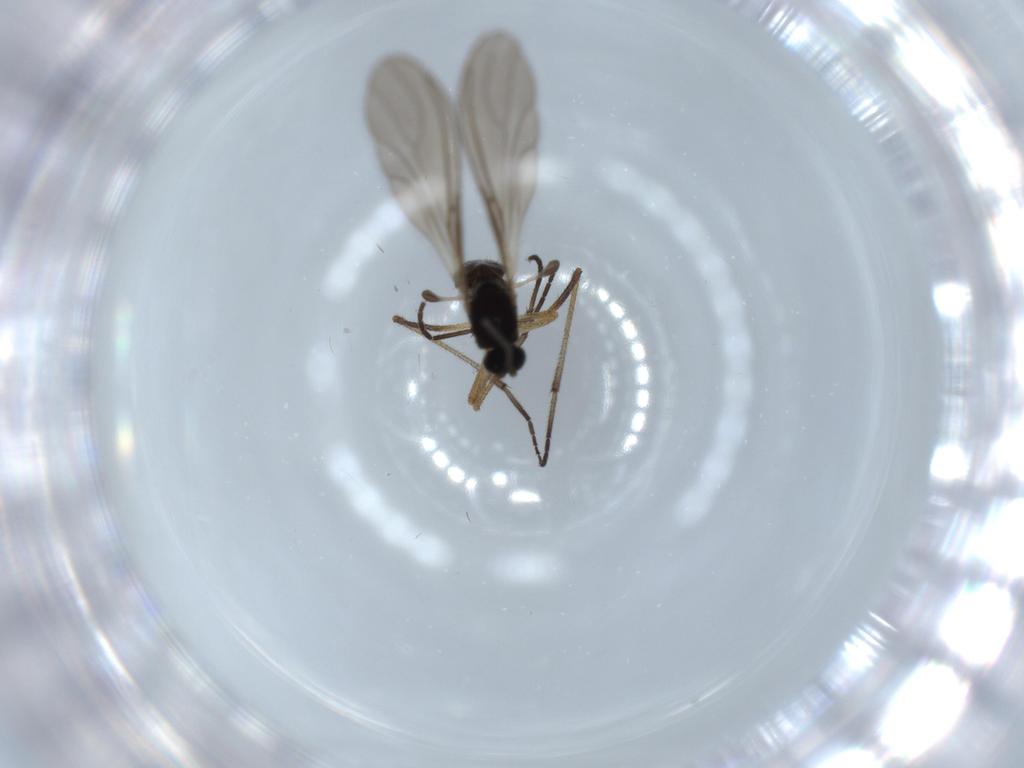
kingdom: Animalia
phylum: Arthropoda
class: Insecta
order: Diptera
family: Sciaridae
